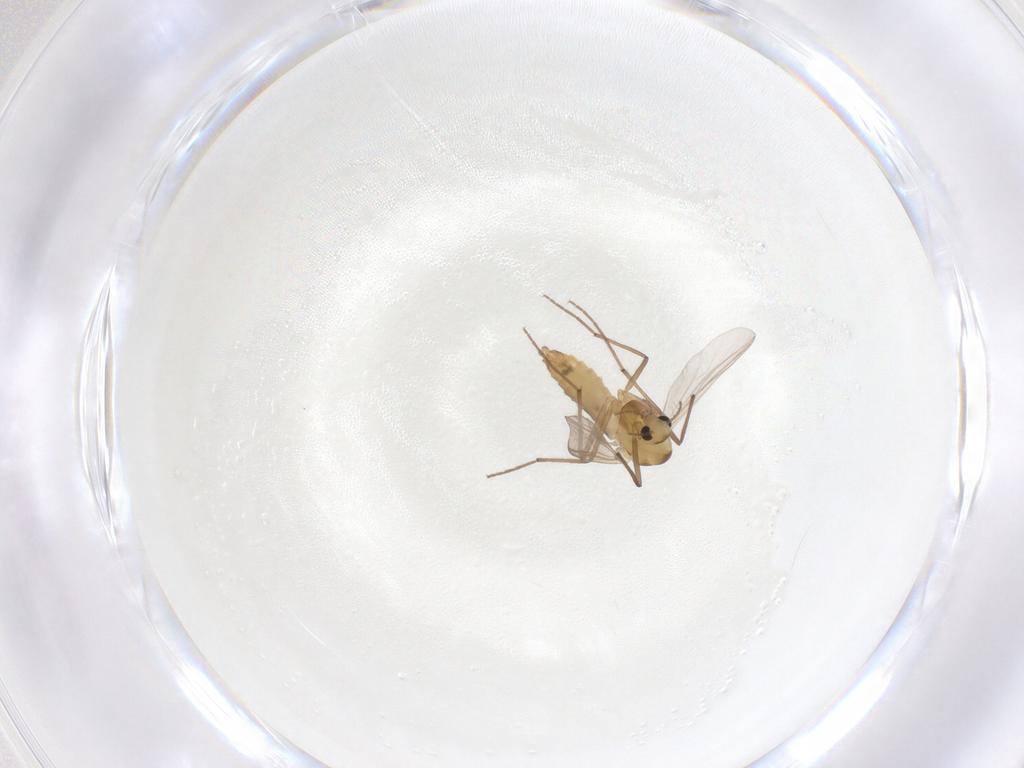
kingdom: Animalia
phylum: Arthropoda
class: Insecta
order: Diptera
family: Chironomidae
